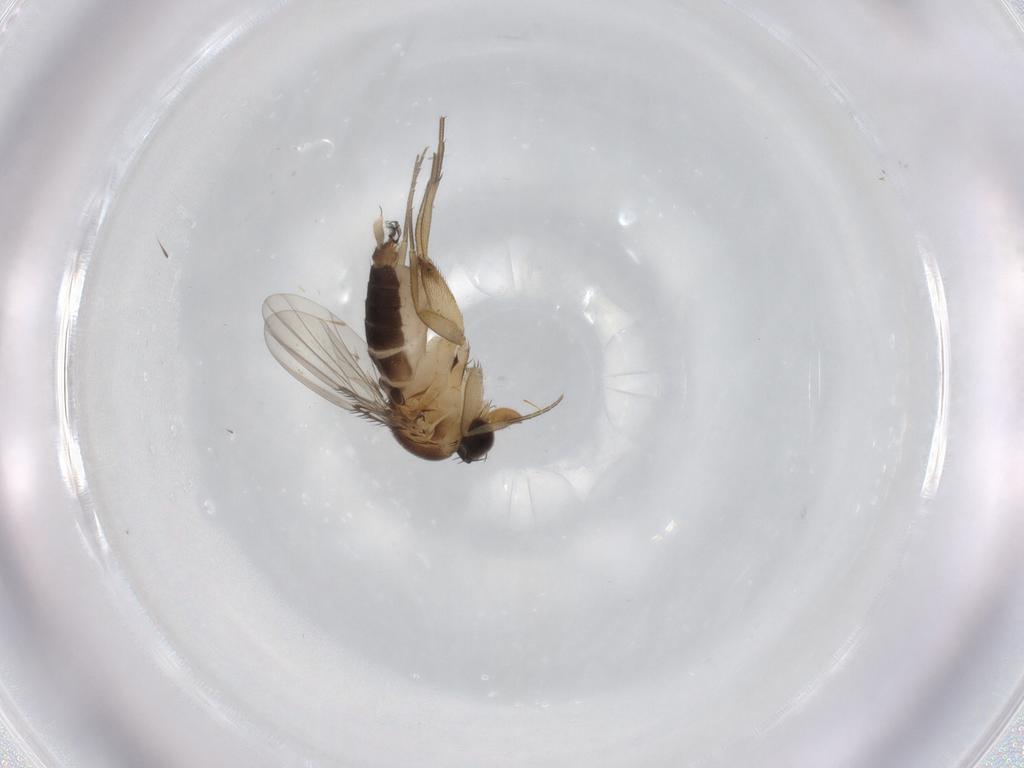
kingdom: Animalia
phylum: Arthropoda
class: Insecta
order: Diptera
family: Phoridae
